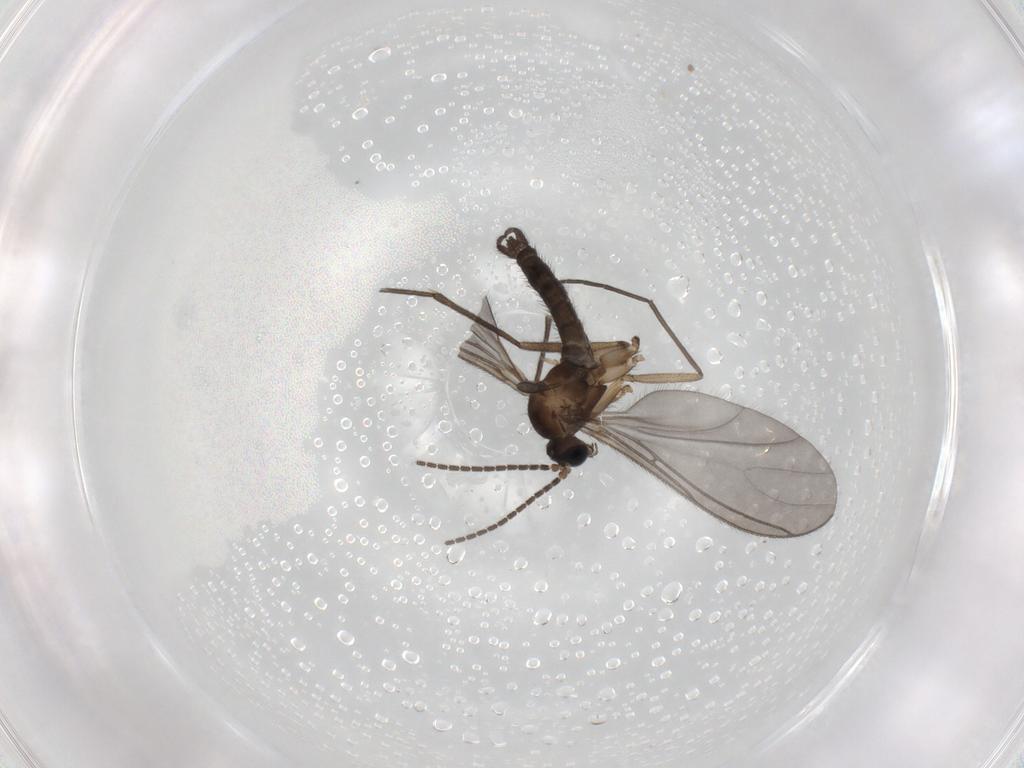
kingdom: Animalia
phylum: Arthropoda
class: Insecta
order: Diptera
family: Sciaridae
